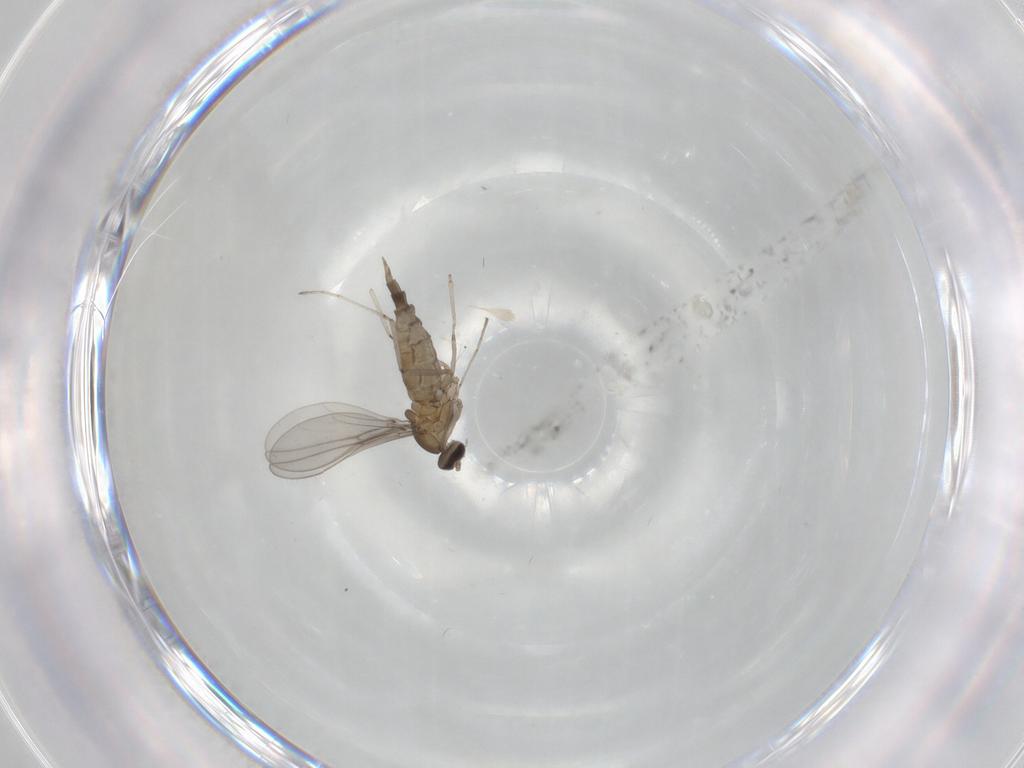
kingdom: Animalia
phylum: Arthropoda
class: Insecta
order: Diptera
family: Cecidomyiidae
